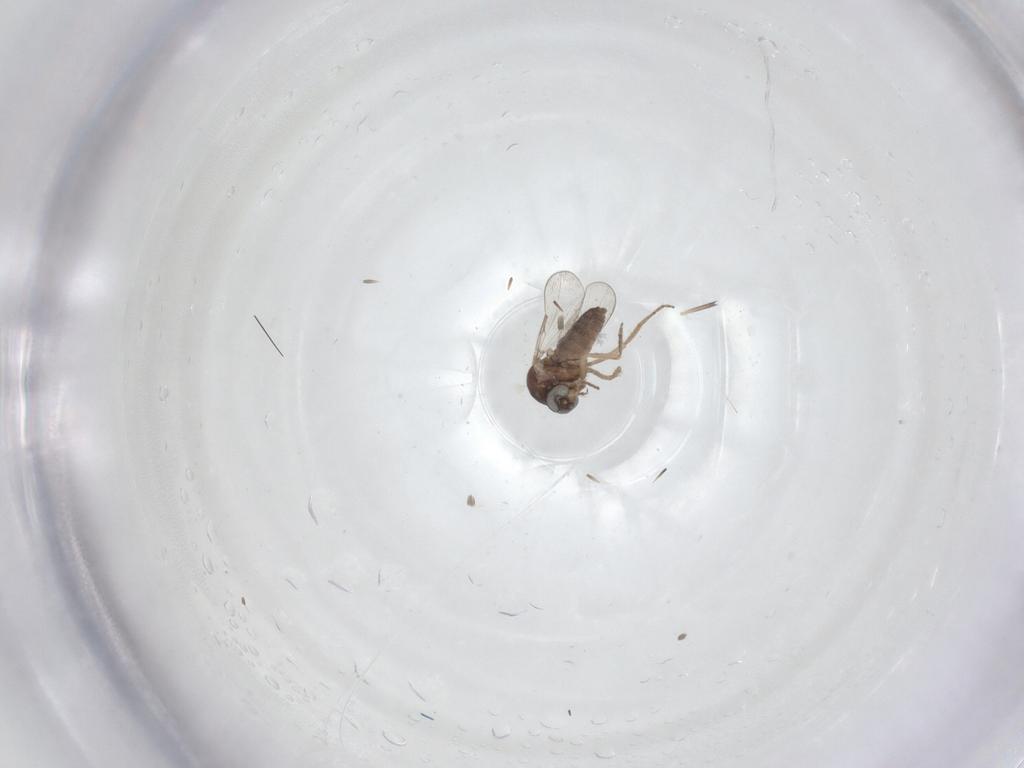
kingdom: Animalia
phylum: Arthropoda
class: Insecta
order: Diptera
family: Ceratopogonidae
